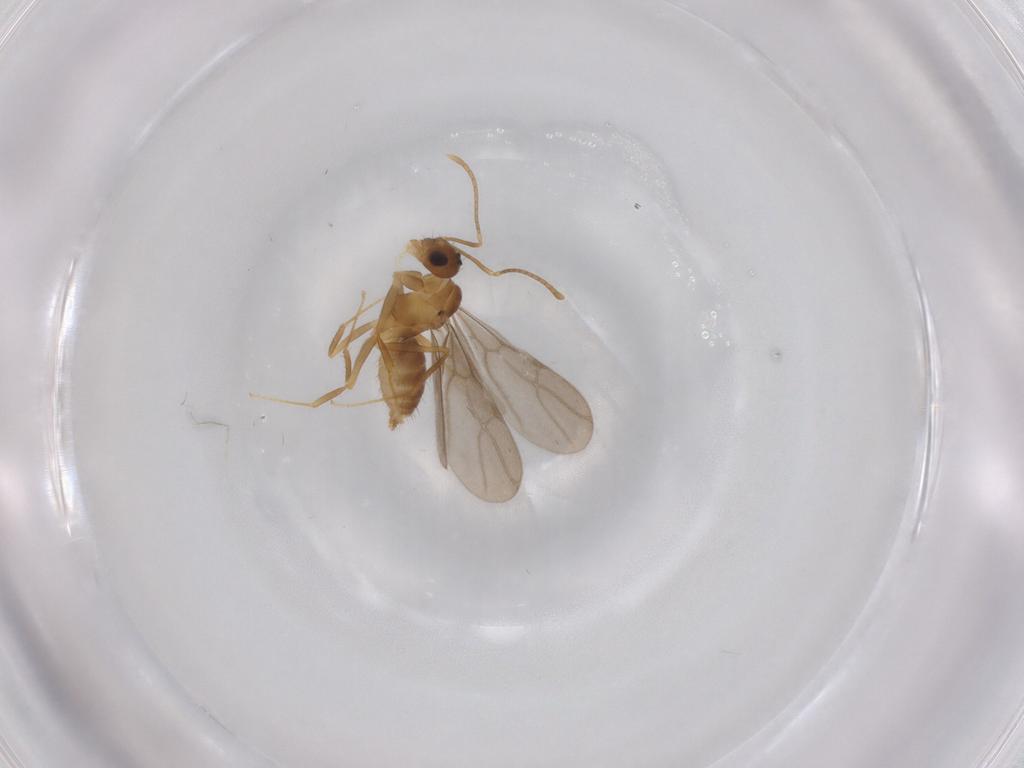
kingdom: Animalia
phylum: Arthropoda
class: Insecta
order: Hymenoptera
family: Formicidae
